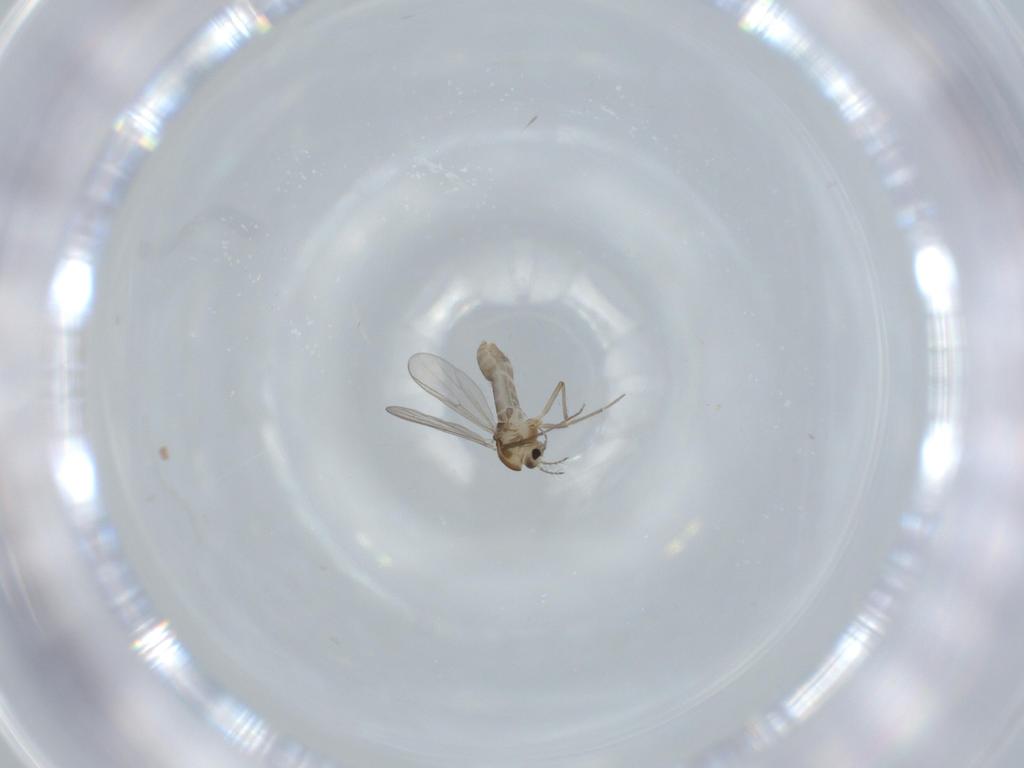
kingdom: Animalia
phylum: Arthropoda
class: Insecta
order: Diptera
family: Chironomidae
